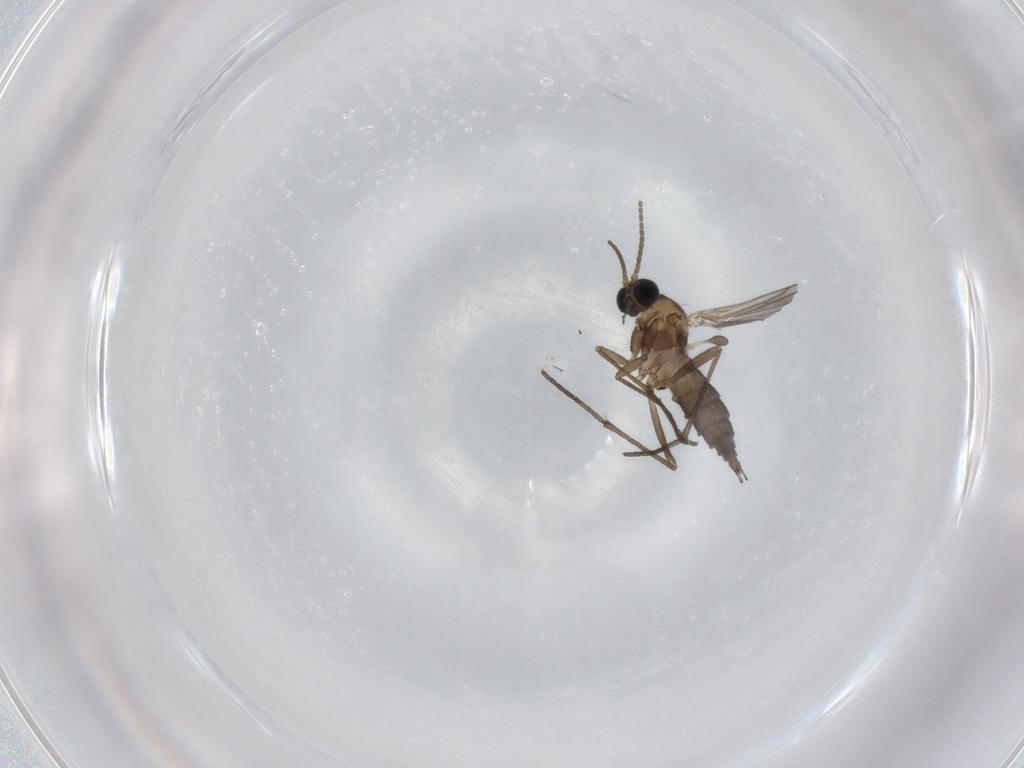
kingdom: Animalia
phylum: Arthropoda
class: Insecta
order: Diptera
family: Sciaridae
